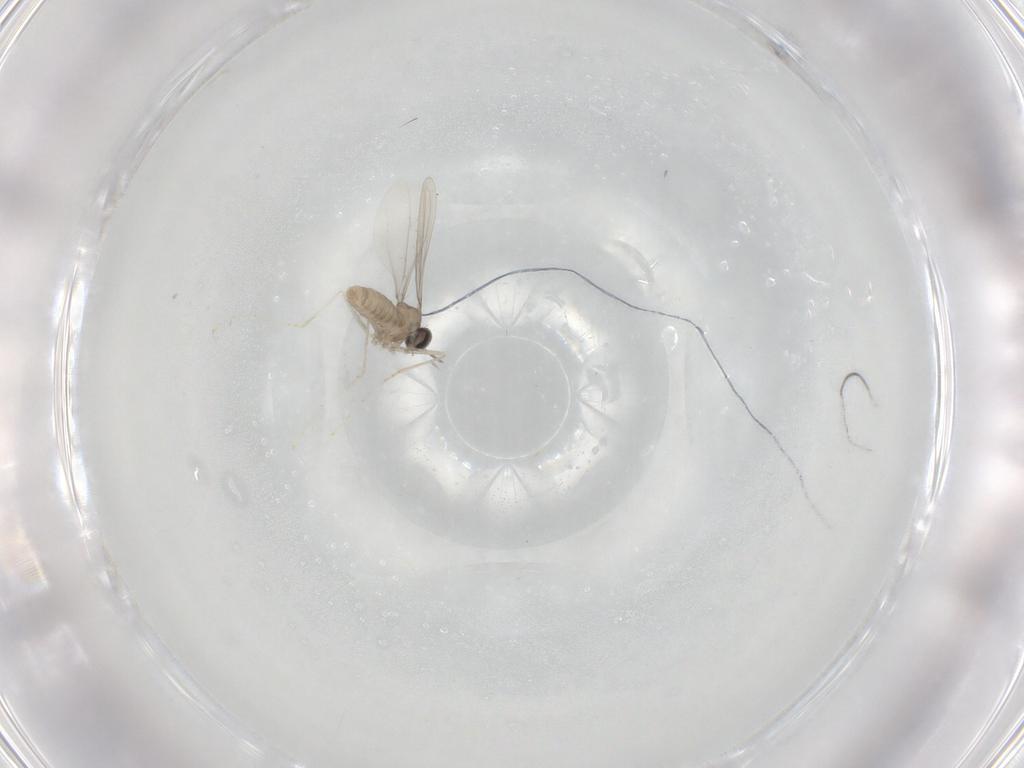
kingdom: Animalia
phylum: Arthropoda
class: Insecta
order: Diptera
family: Cecidomyiidae
